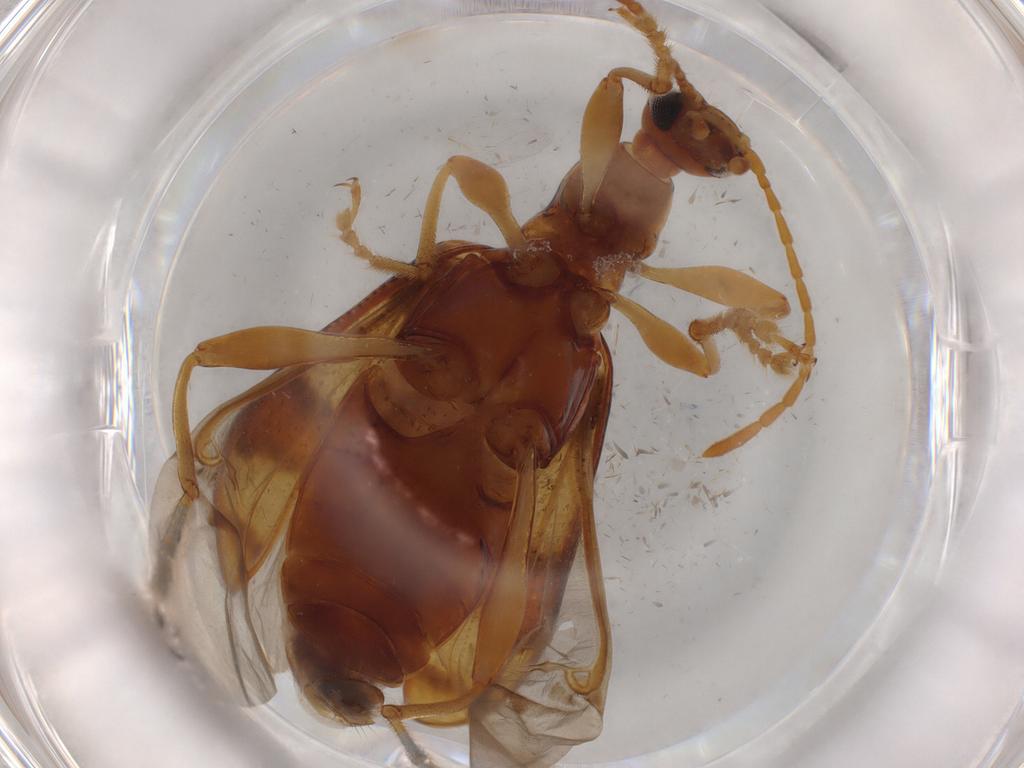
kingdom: Animalia
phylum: Arthropoda
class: Insecta
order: Coleoptera
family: Tenebrionidae
